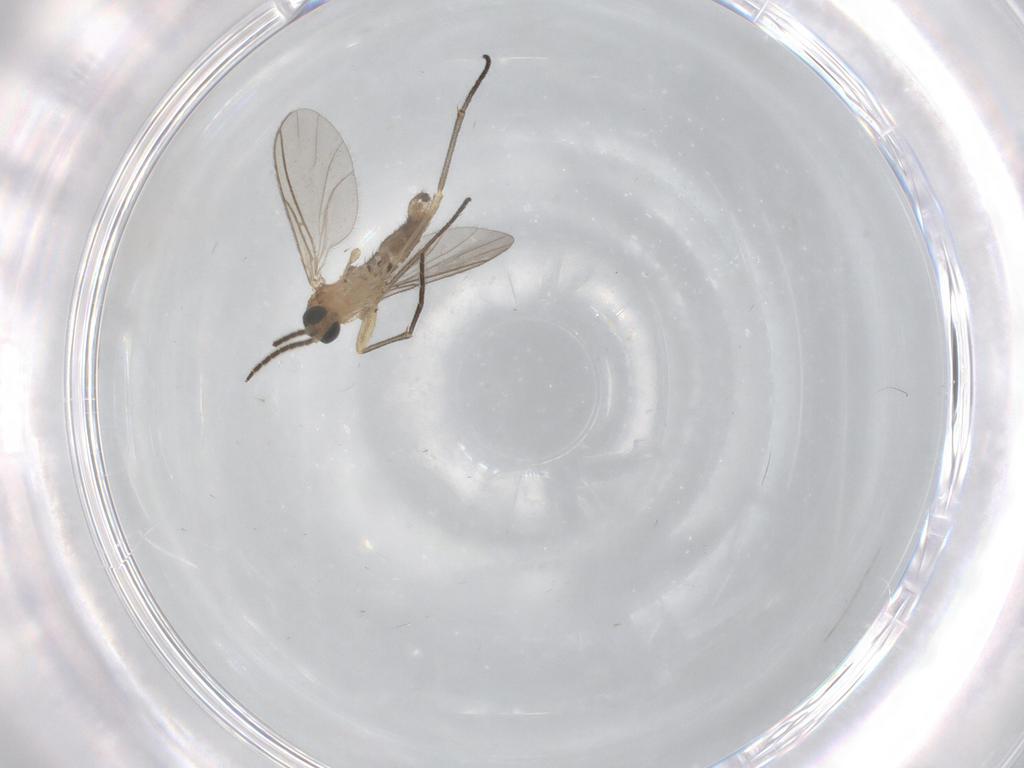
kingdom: Animalia
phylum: Arthropoda
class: Insecta
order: Diptera
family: Sciaridae
